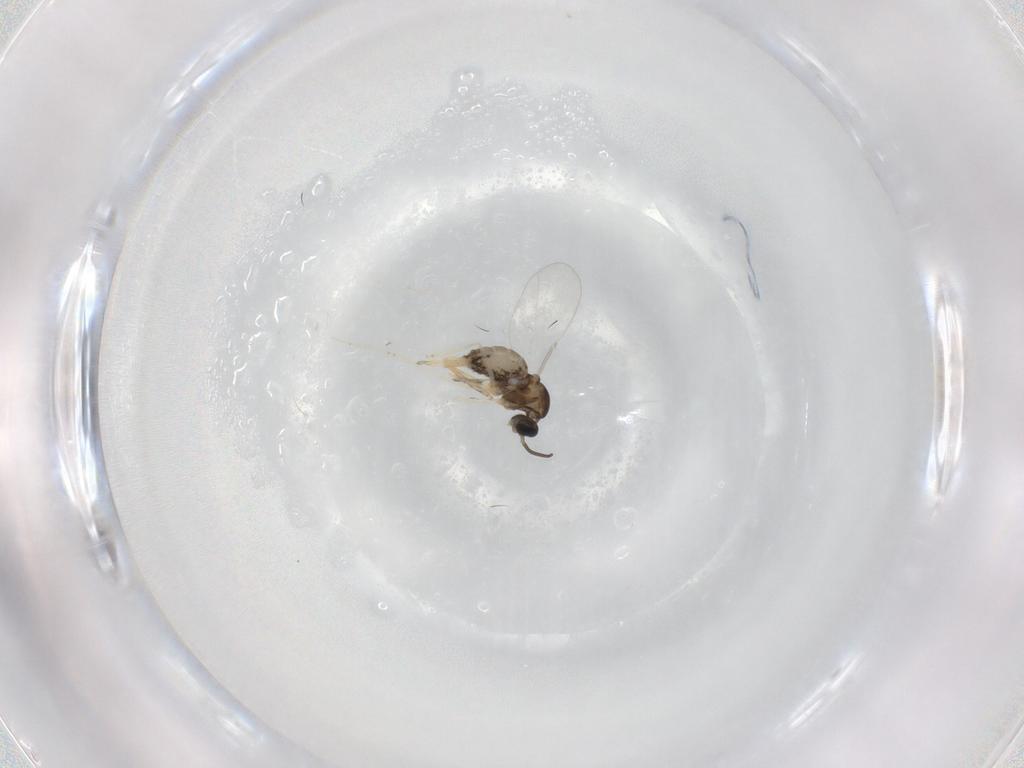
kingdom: Animalia
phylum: Arthropoda
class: Insecta
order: Diptera
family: Cecidomyiidae
